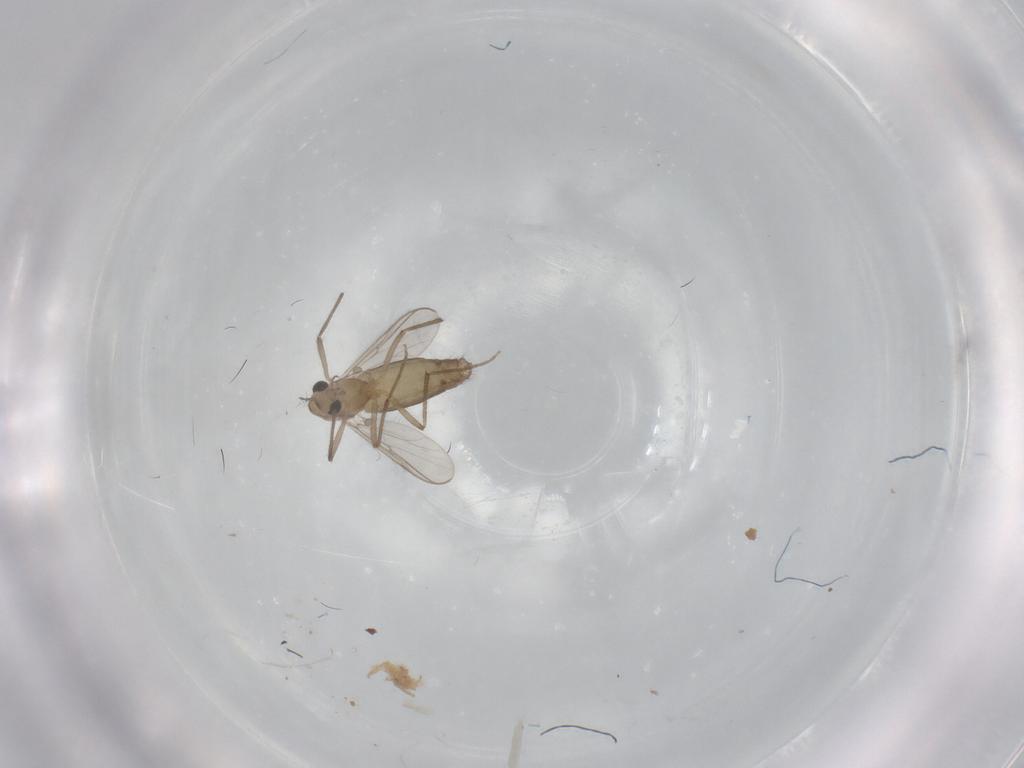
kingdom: Animalia
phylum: Arthropoda
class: Insecta
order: Diptera
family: Chironomidae
